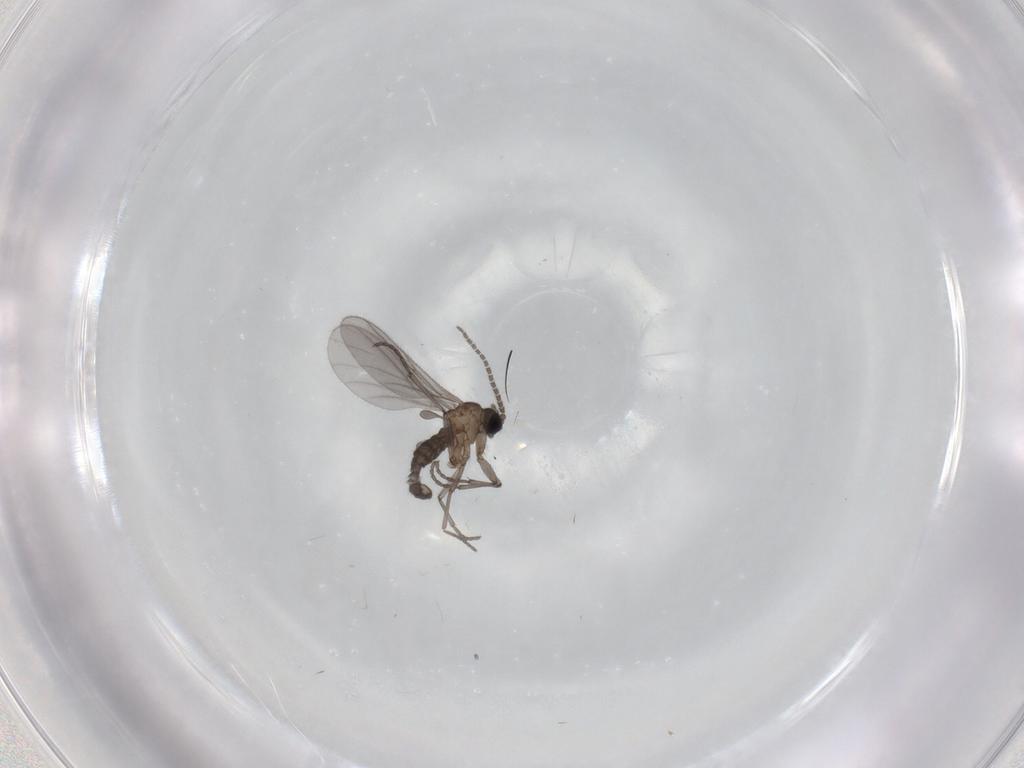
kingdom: Animalia
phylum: Arthropoda
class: Insecta
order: Diptera
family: Sciaridae
